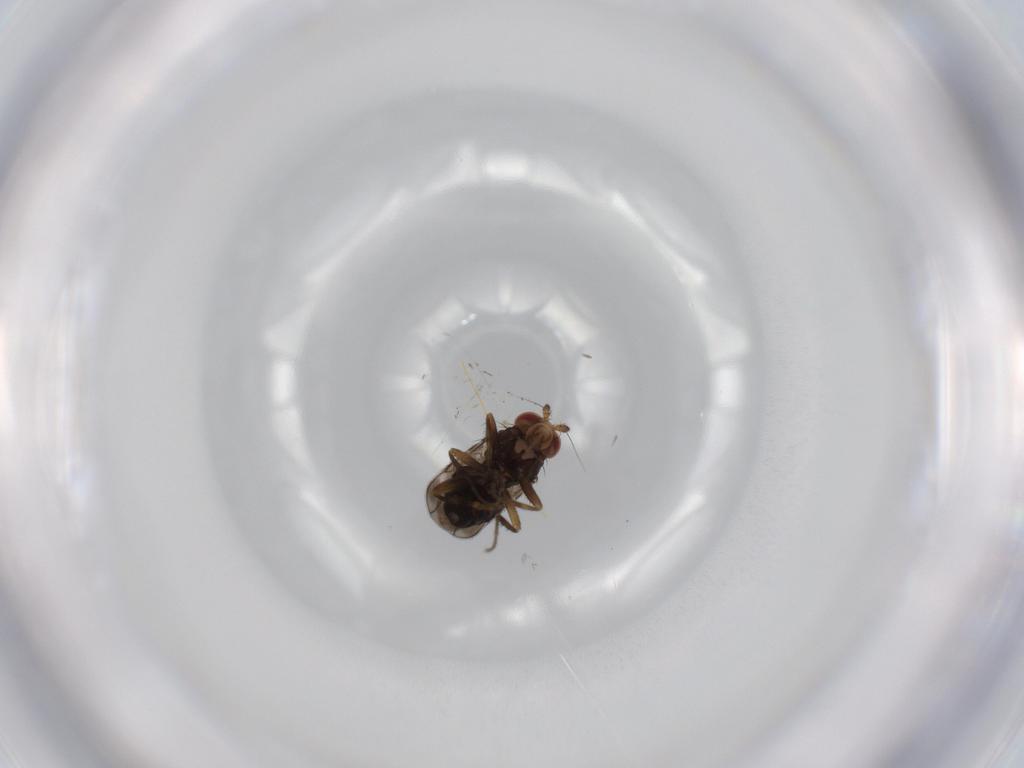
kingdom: Animalia
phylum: Arthropoda
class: Insecta
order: Diptera
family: Sphaeroceridae
